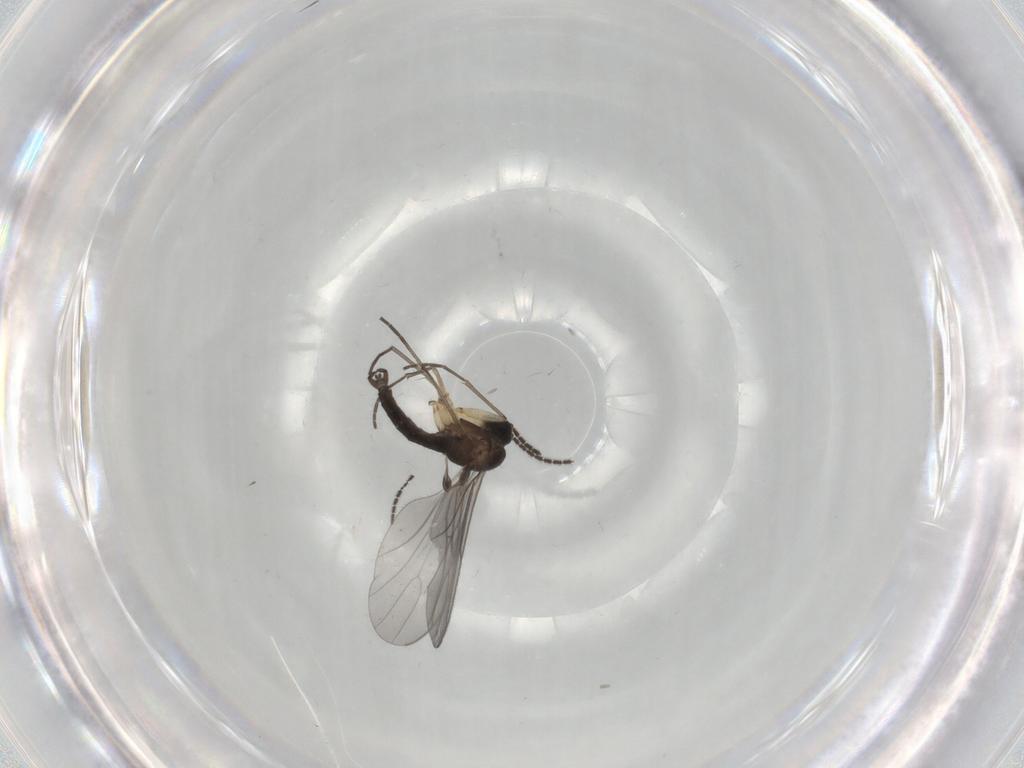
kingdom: Animalia
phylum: Arthropoda
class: Insecta
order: Diptera
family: Sciaridae
